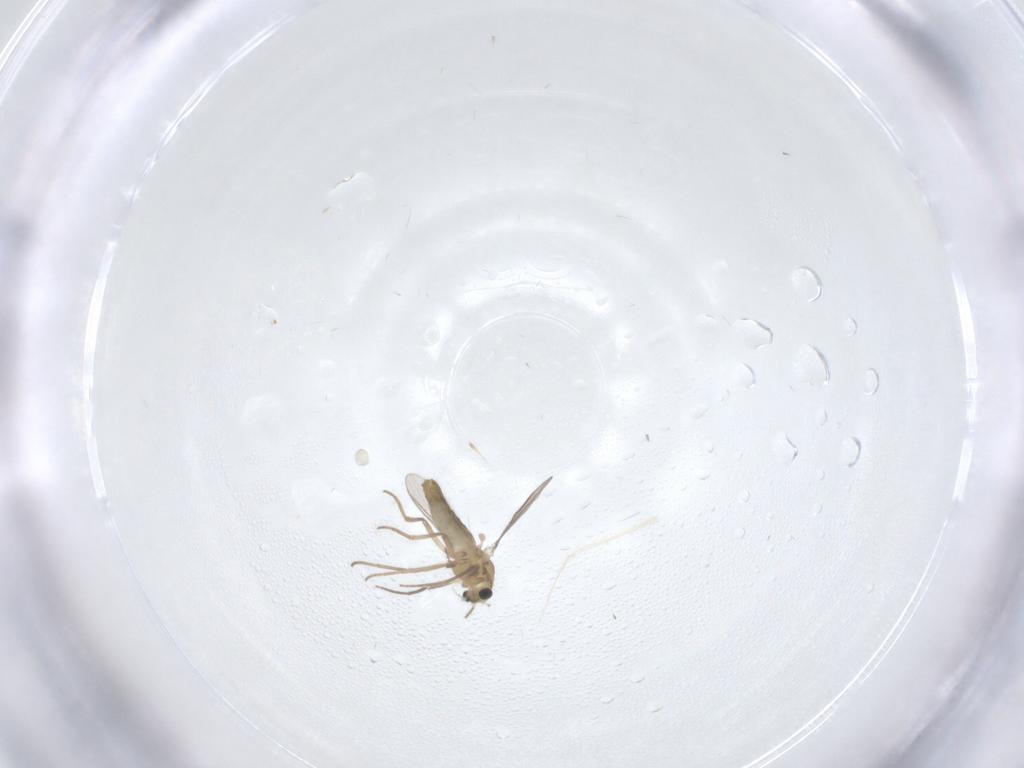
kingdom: Animalia
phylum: Arthropoda
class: Insecta
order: Diptera
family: Chironomidae
